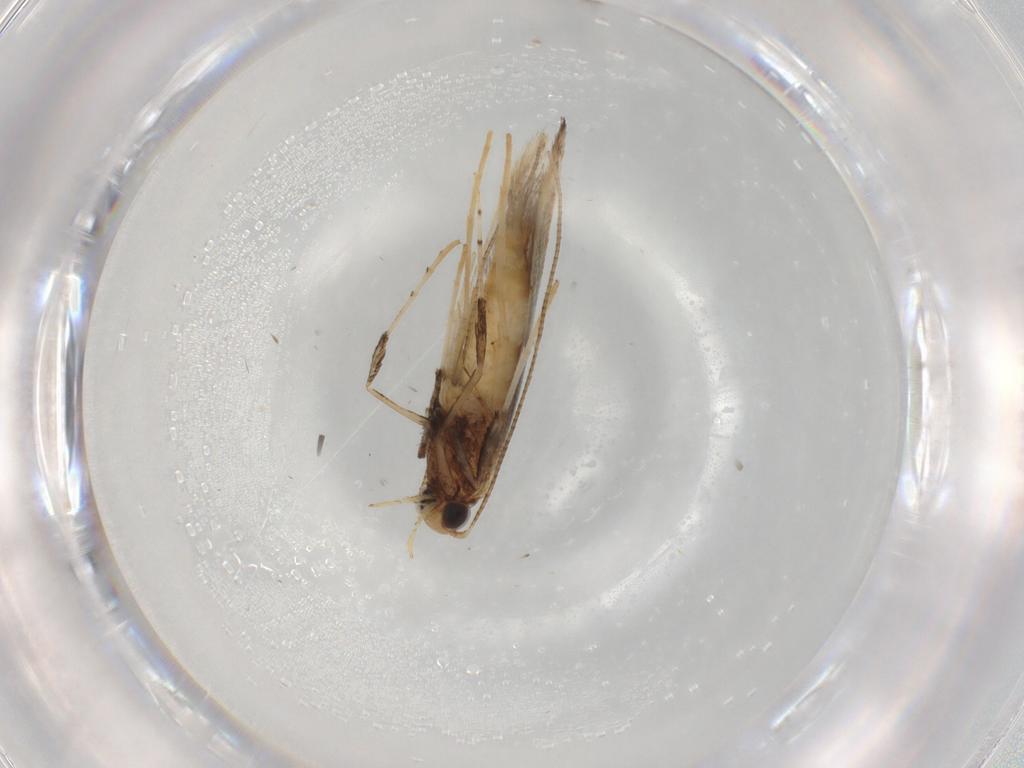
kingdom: Animalia
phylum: Arthropoda
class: Insecta
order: Lepidoptera
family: Gracillariidae
